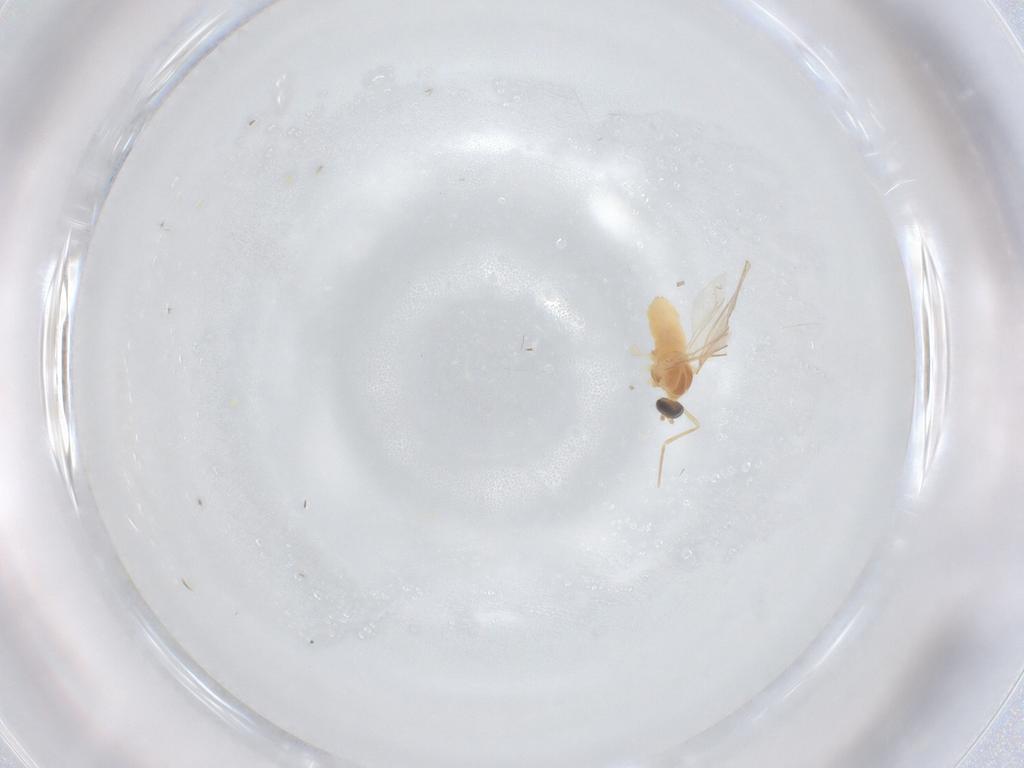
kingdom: Animalia
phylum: Arthropoda
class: Insecta
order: Diptera
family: Cecidomyiidae
